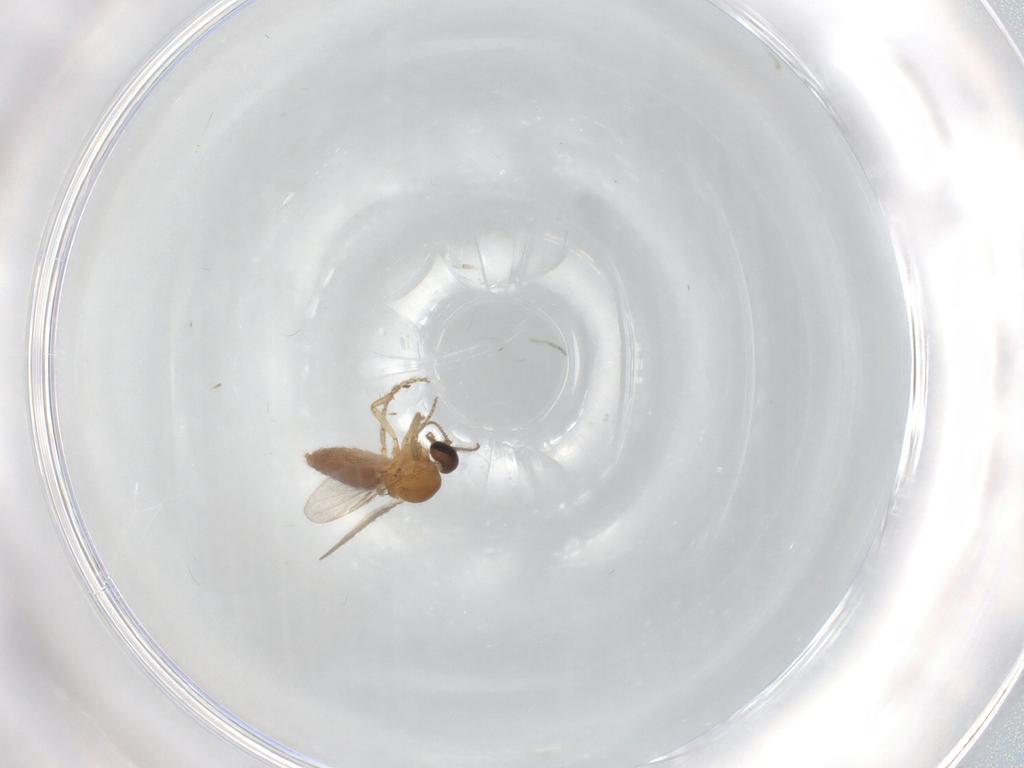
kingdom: Animalia
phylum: Arthropoda
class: Insecta
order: Diptera
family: Ceratopogonidae
